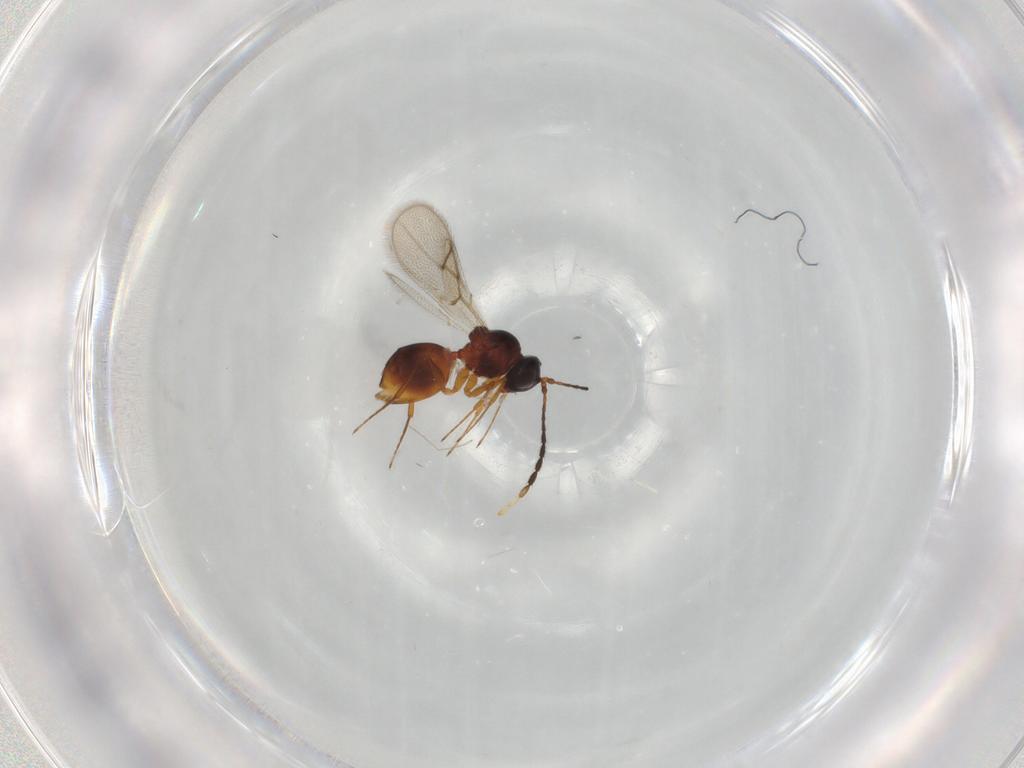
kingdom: Animalia
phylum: Arthropoda
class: Insecta
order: Hymenoptera
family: Figitidae
